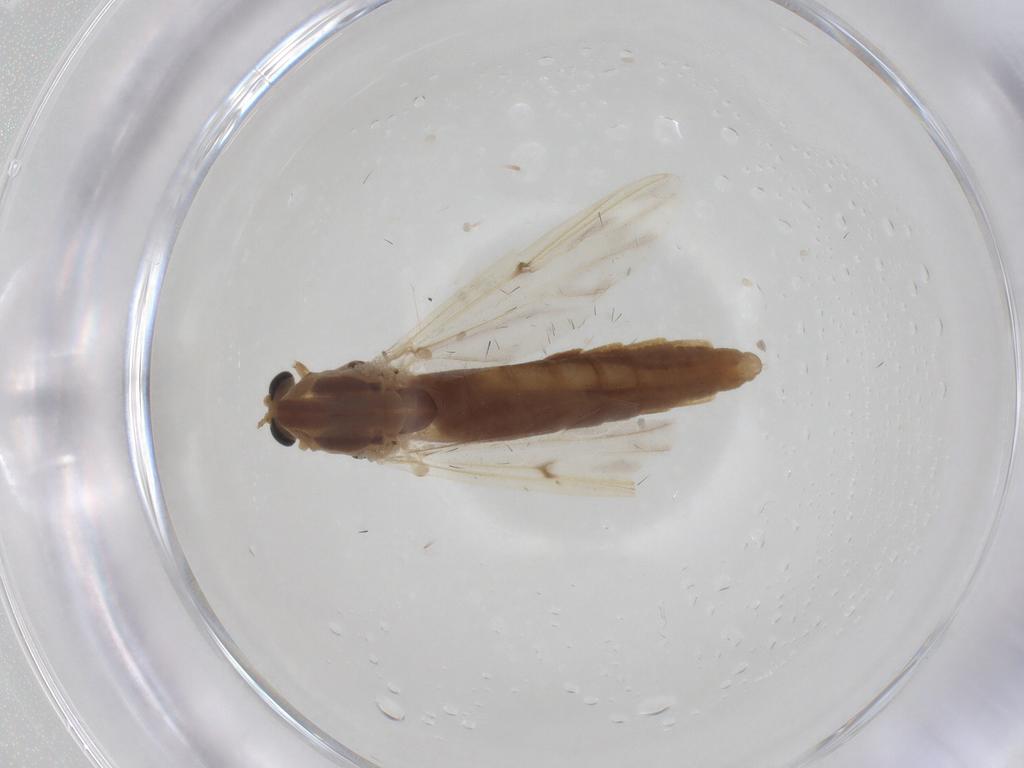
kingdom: Animalia
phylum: Arthropoda
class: Insecta
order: Diptera
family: Chironomidae
